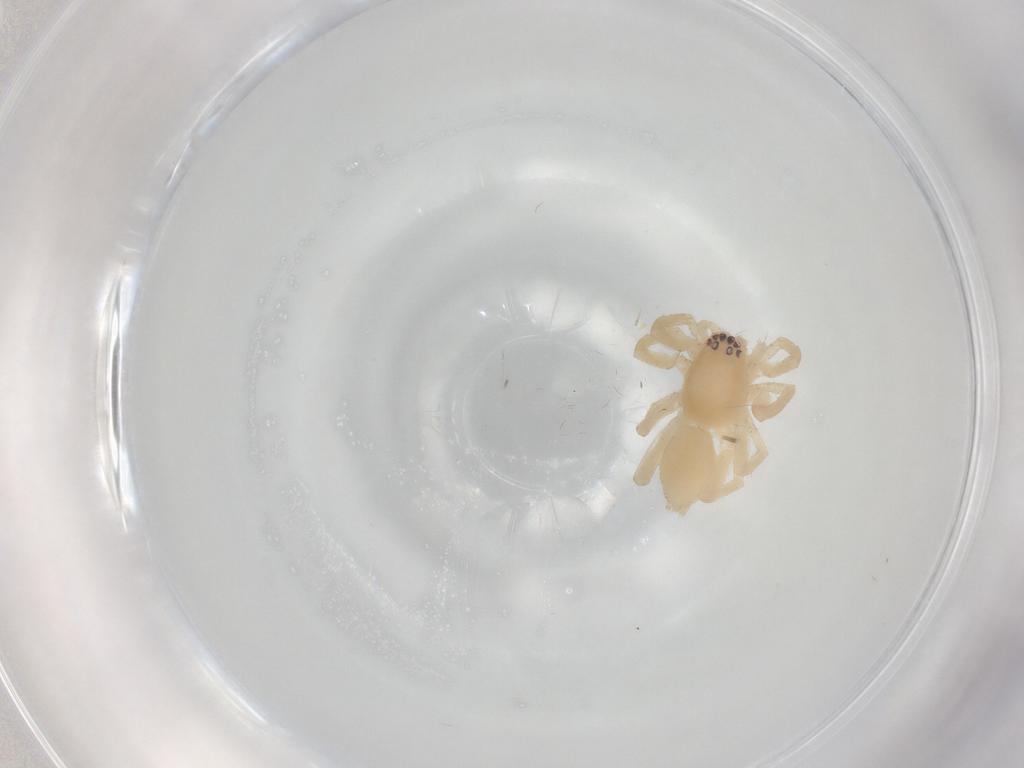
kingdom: Animalia
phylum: Arthropoda
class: Arachnida
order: Araneae
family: Clubionidae
